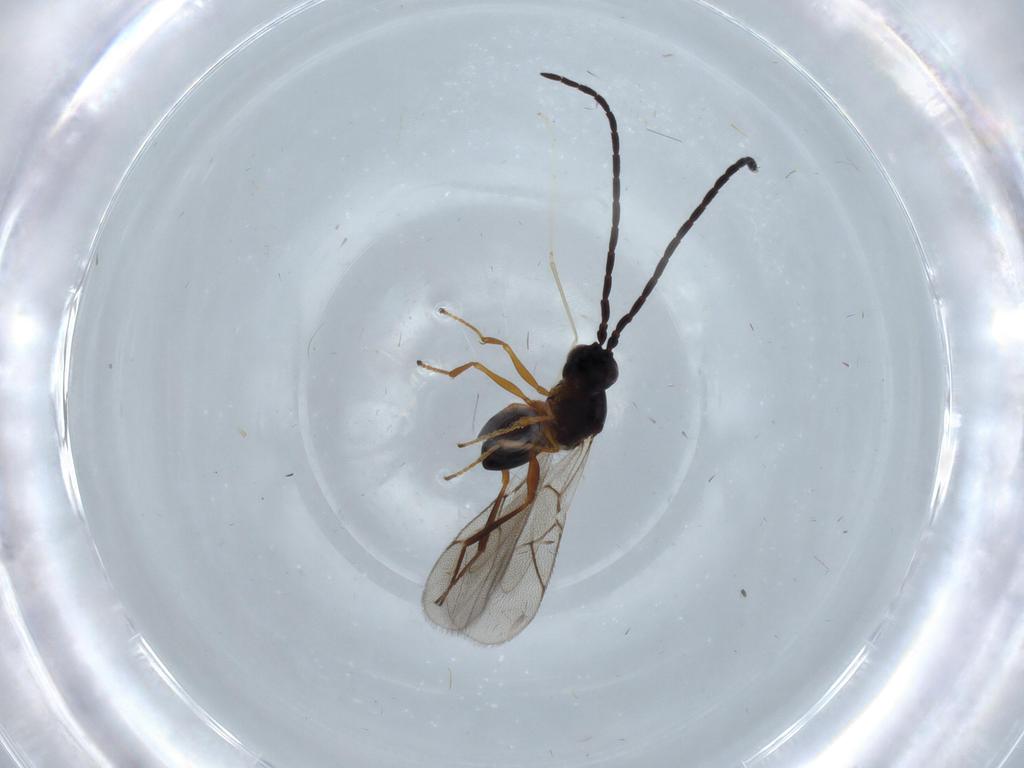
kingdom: Animalia
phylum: Arthropoda
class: Insecta
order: Hymenoptera
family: Figitidae
